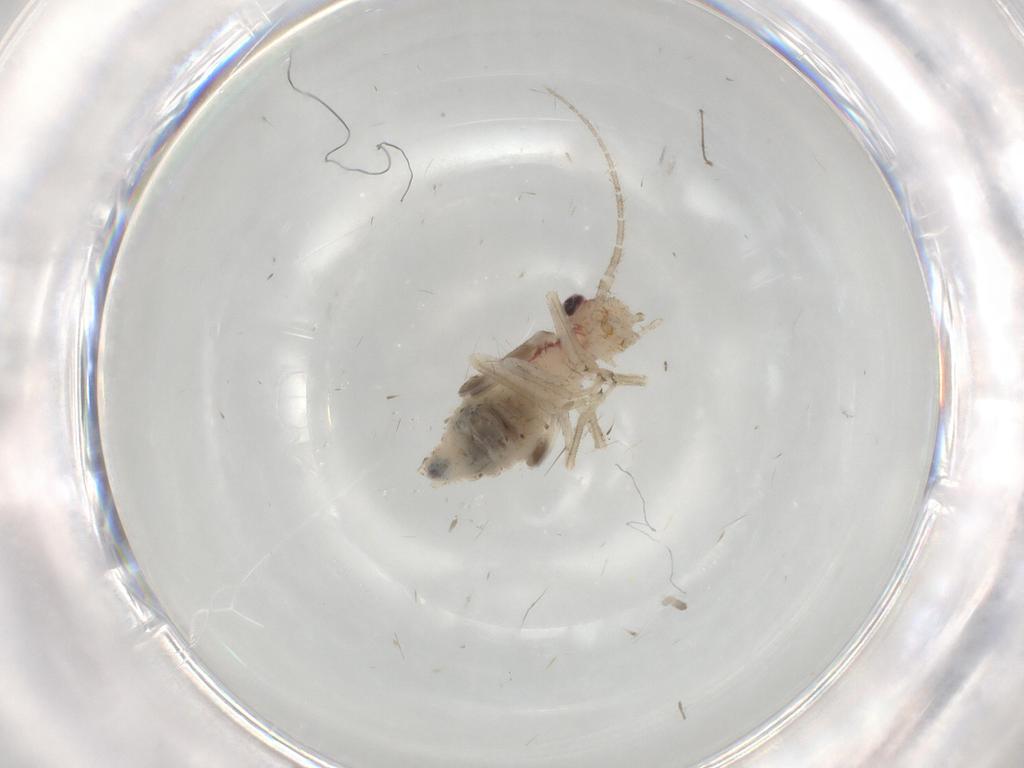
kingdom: Animalia
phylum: Arthropoda
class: Insecta
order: Psocodea
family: Amphipsocidae
